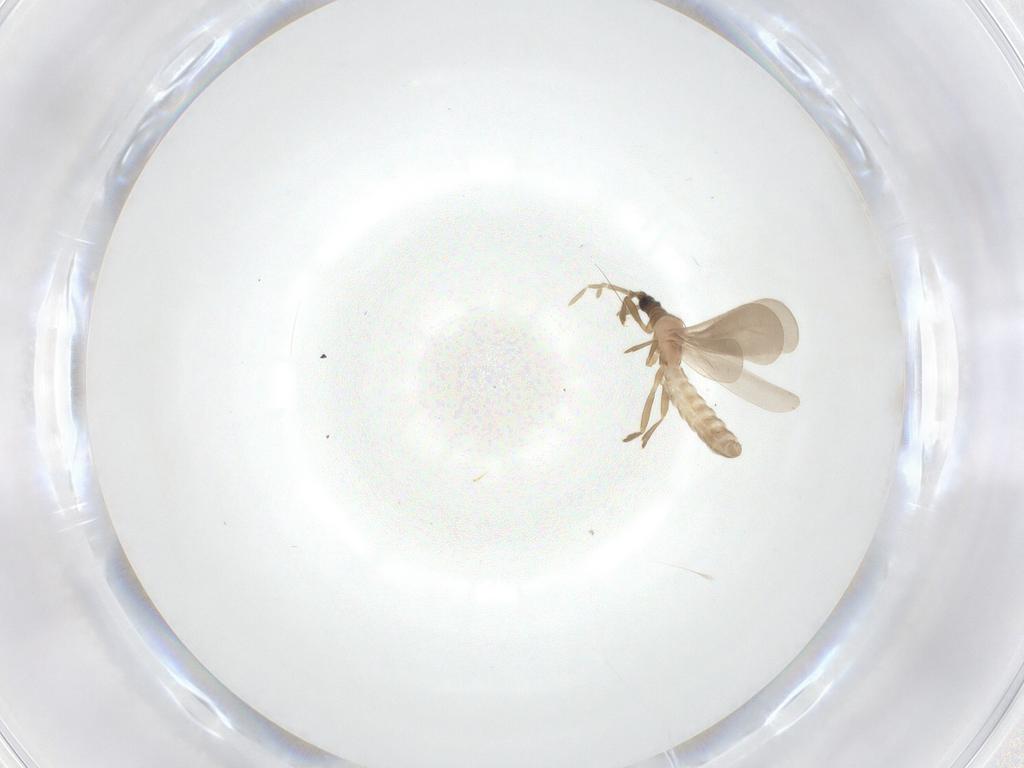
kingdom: Animalia
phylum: Arthropoda
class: Insecta
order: Hemiptera
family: Enicocephalidae
